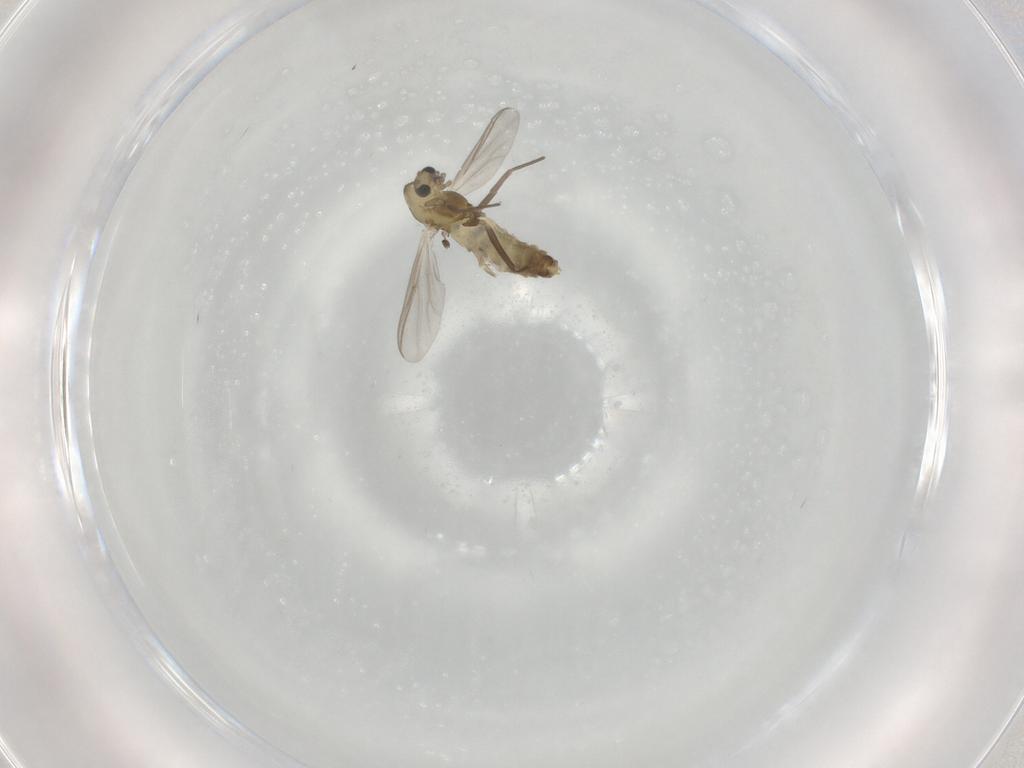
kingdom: Animalia
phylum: Arthropoda
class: Insecta
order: Diptera
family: Chironomidae
